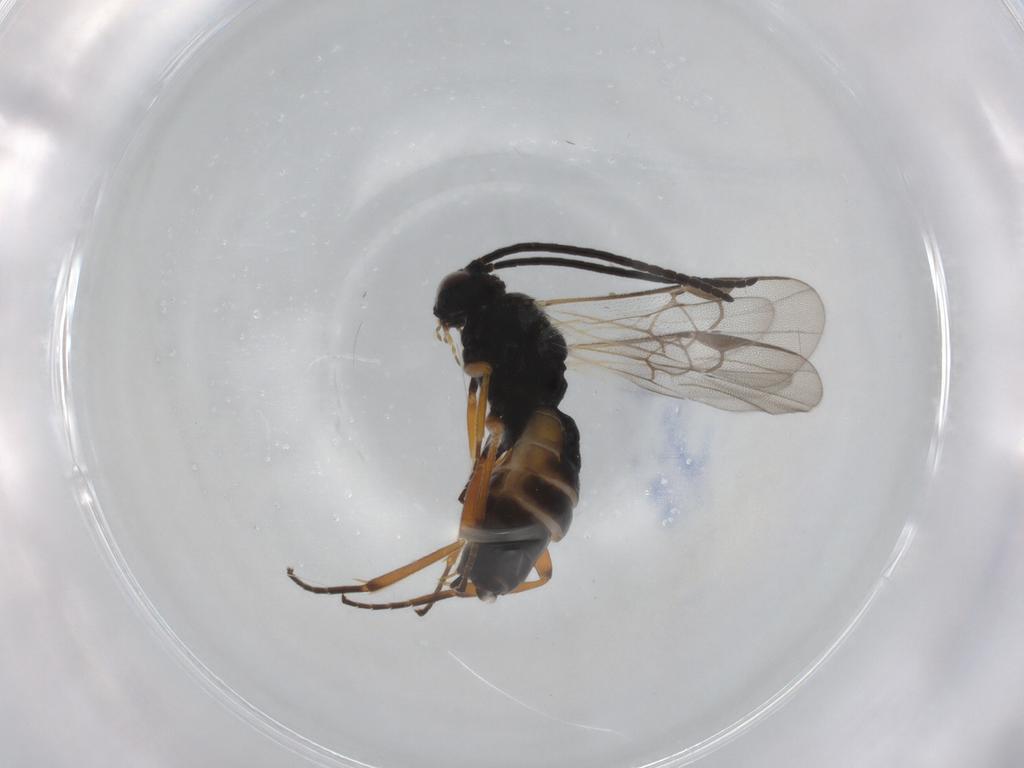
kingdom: Animalia
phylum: Arthropoda
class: Insecta
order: Hymenoptera
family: Braconidae
